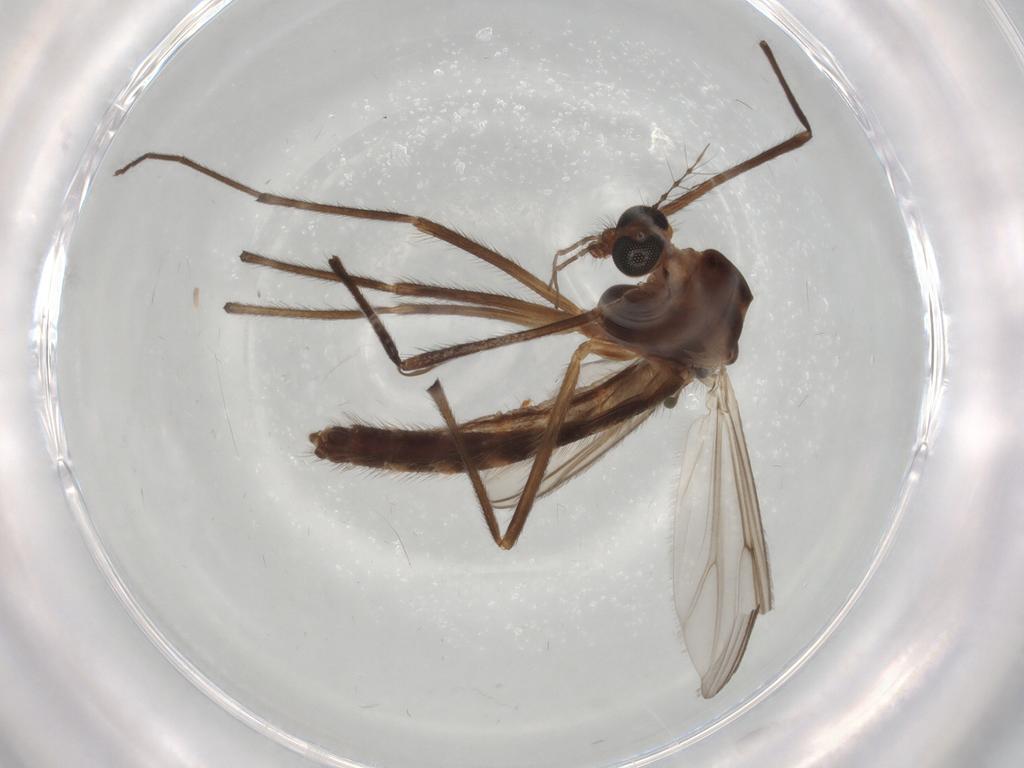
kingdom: Animalia
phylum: Arthropoda
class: Insecta
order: Diptera
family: Chironomidae
